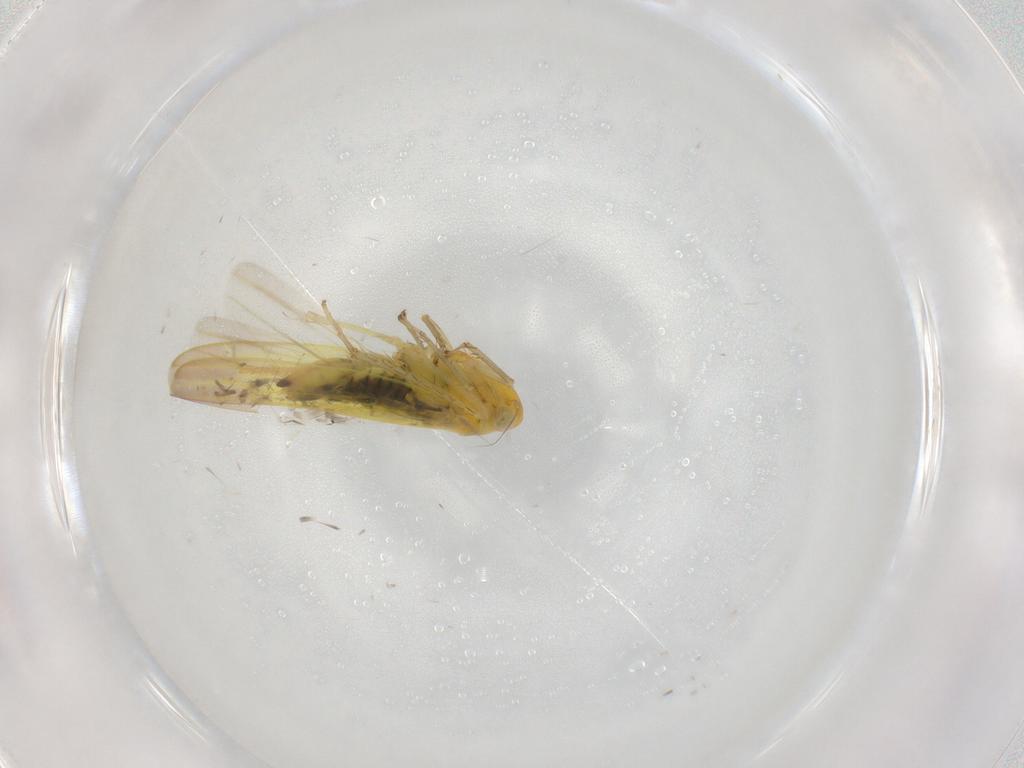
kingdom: Animalia
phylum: Arthropoda
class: Insecta
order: Hemiptera
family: Cicadellidae
